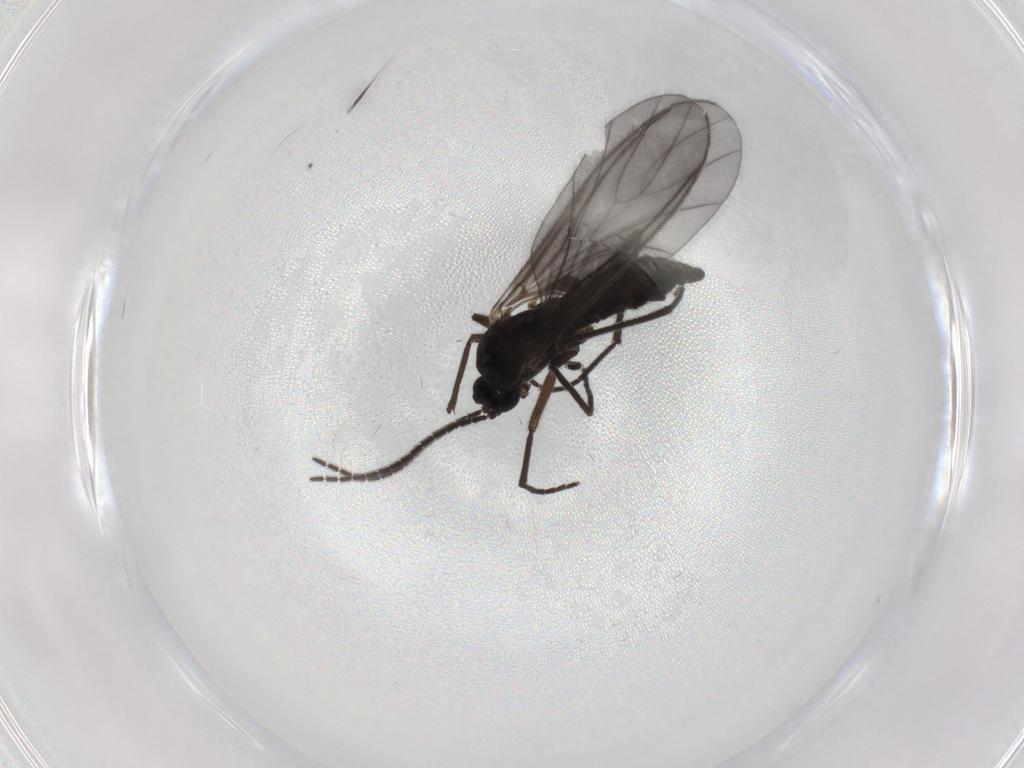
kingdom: Animalia
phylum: Arthropoda
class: Insecta
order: Diptera
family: Sciaridae
